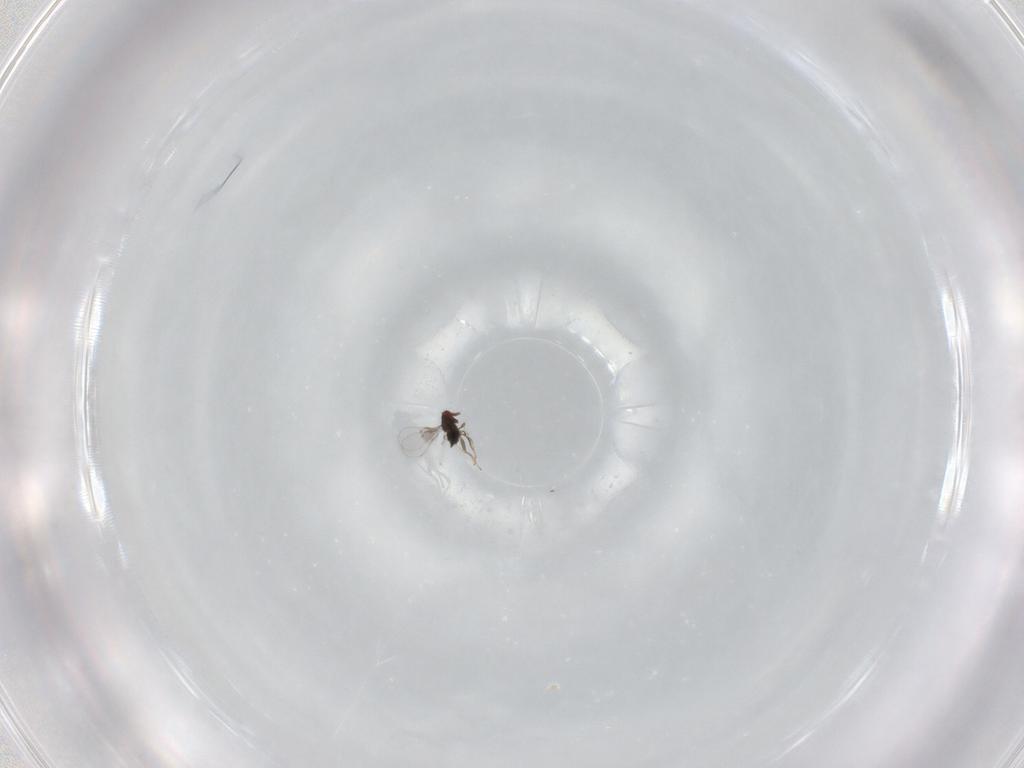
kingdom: Animalia
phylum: Arthropoda
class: Insecta
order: Hymenoptera
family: Trichogrammatidae
